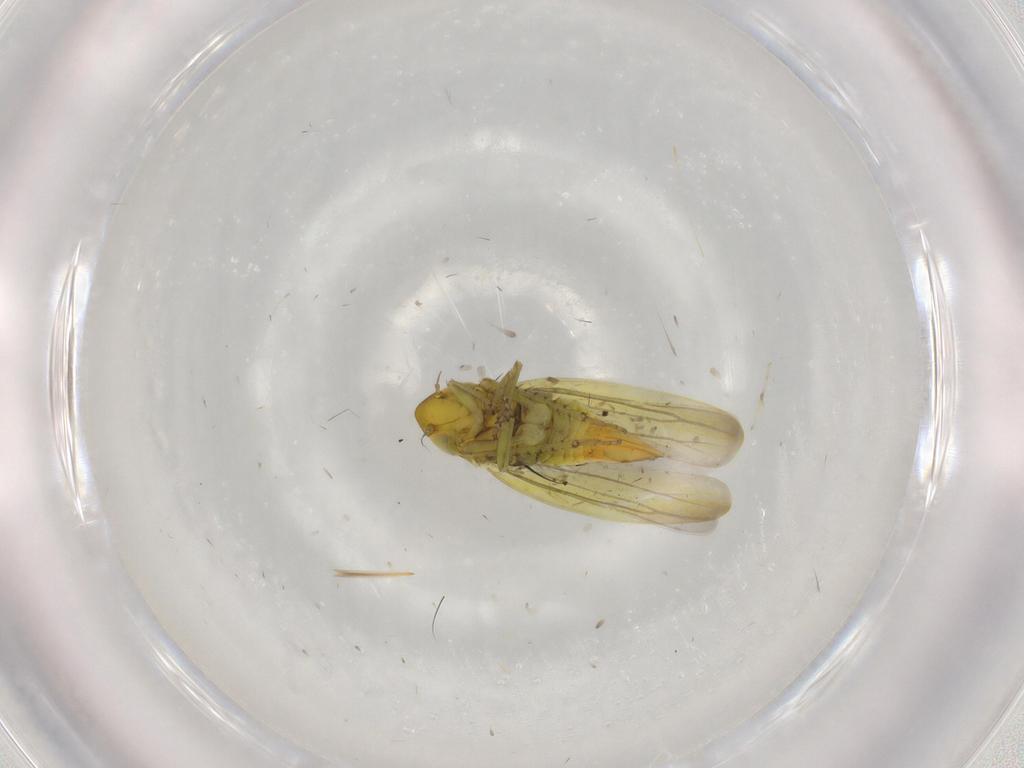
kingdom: Animalia
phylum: Arthropoda
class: Insecta
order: Hemiptera
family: Cicadellidae
